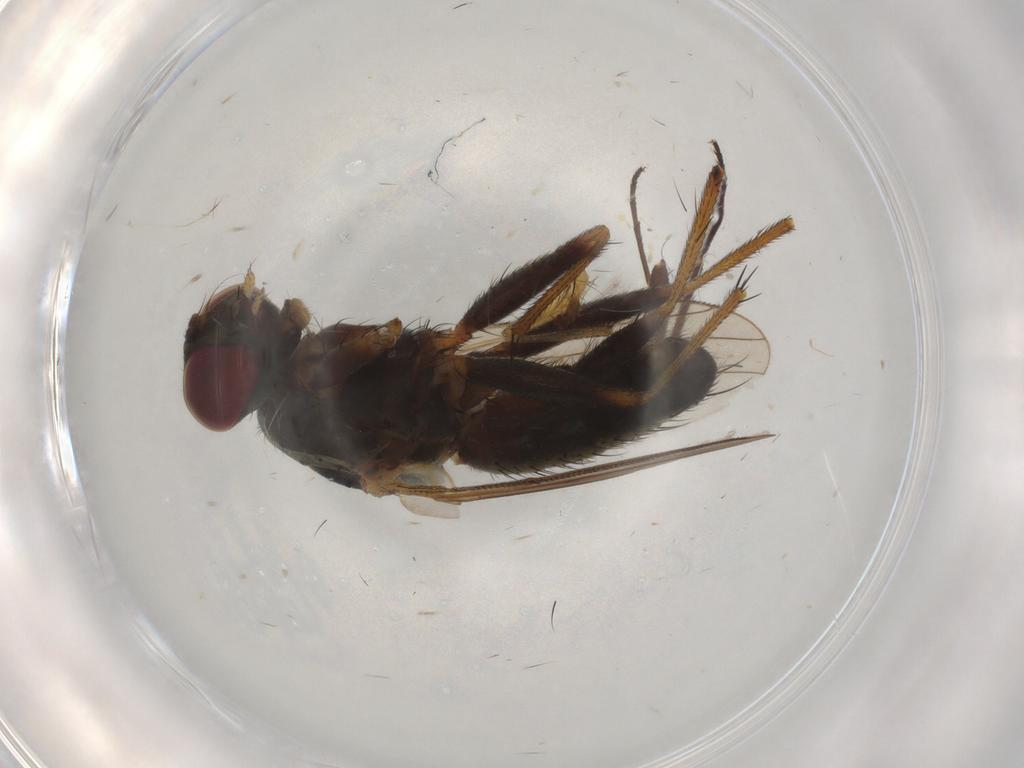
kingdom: Animalia
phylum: Arthropoda
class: Insecta
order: Diptera
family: Dolichopodidae
